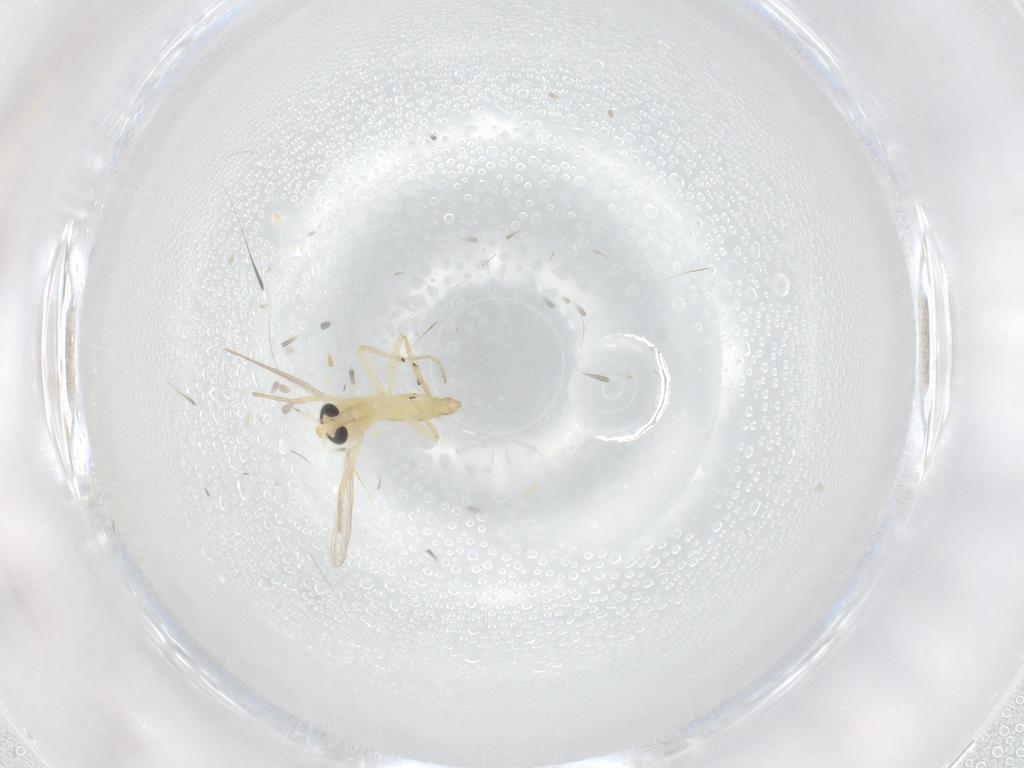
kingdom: Animalia
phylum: Arthropoda
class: Insecta
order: Diptera
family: Chironomidae
